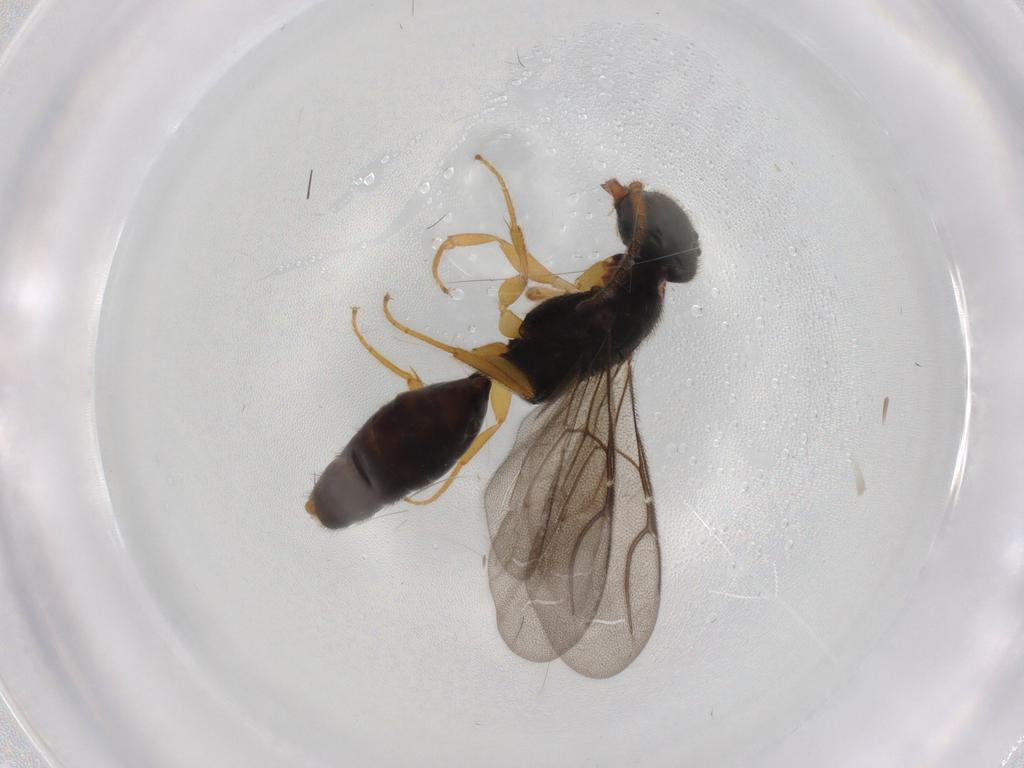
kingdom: Animalia
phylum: Arthropoda
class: Insecta
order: Hymenoptera
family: Bethylidae
